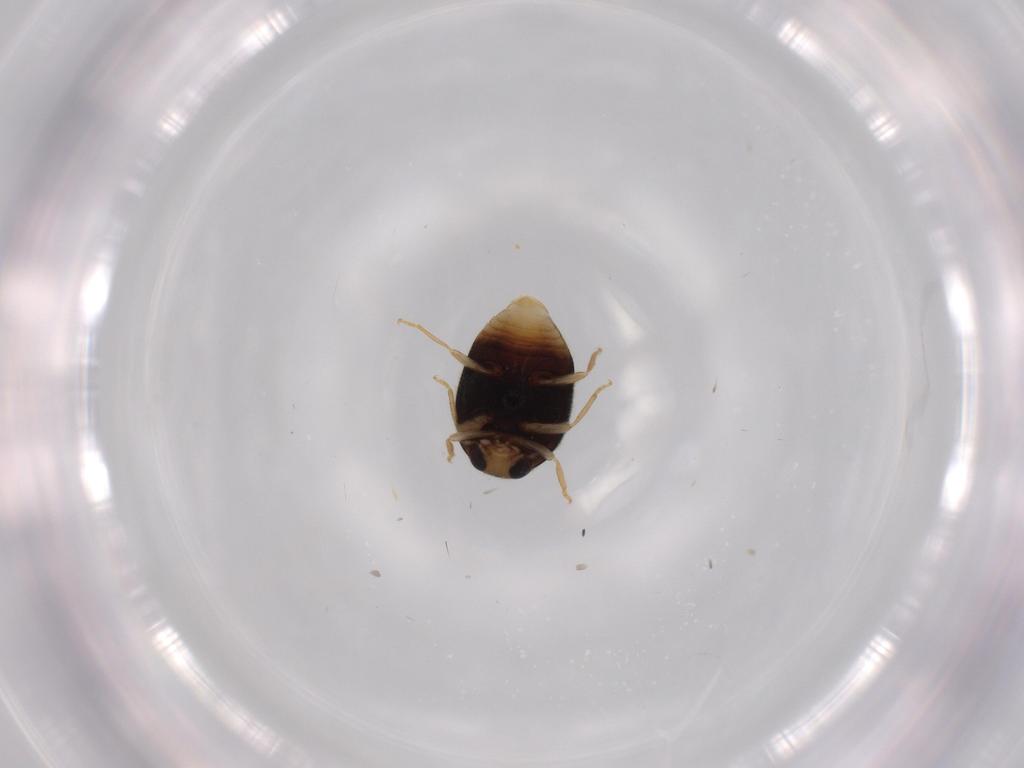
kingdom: Animalia
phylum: Arthropoda
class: Insecta
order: Coleoptera
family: Coccinellidae
